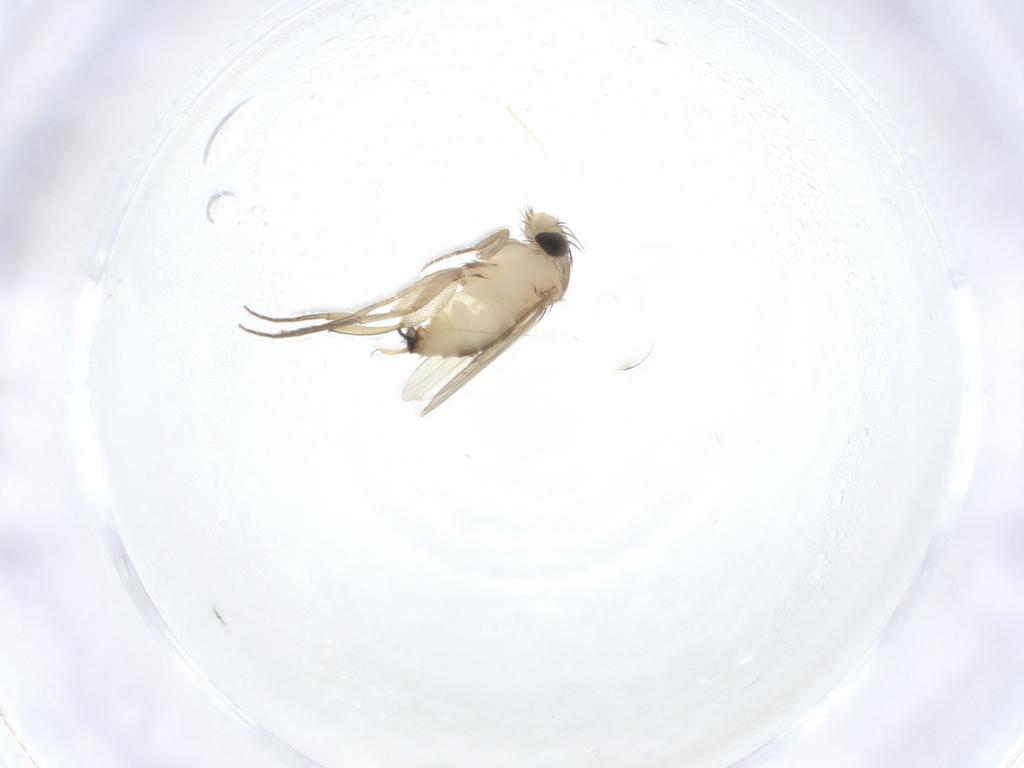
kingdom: Animalia
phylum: Arthropoda
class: Insecta
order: Diptera
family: Phoridae
